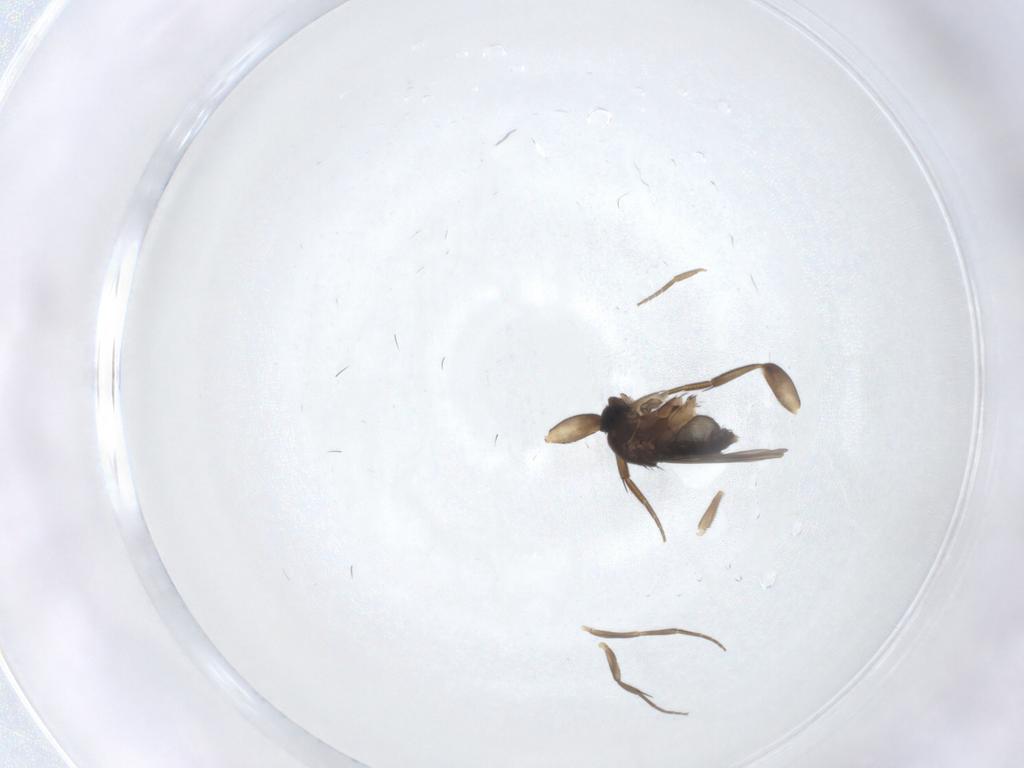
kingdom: Animalia
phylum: Arthropoda
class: Insecta
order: Diptera
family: Phoridae
